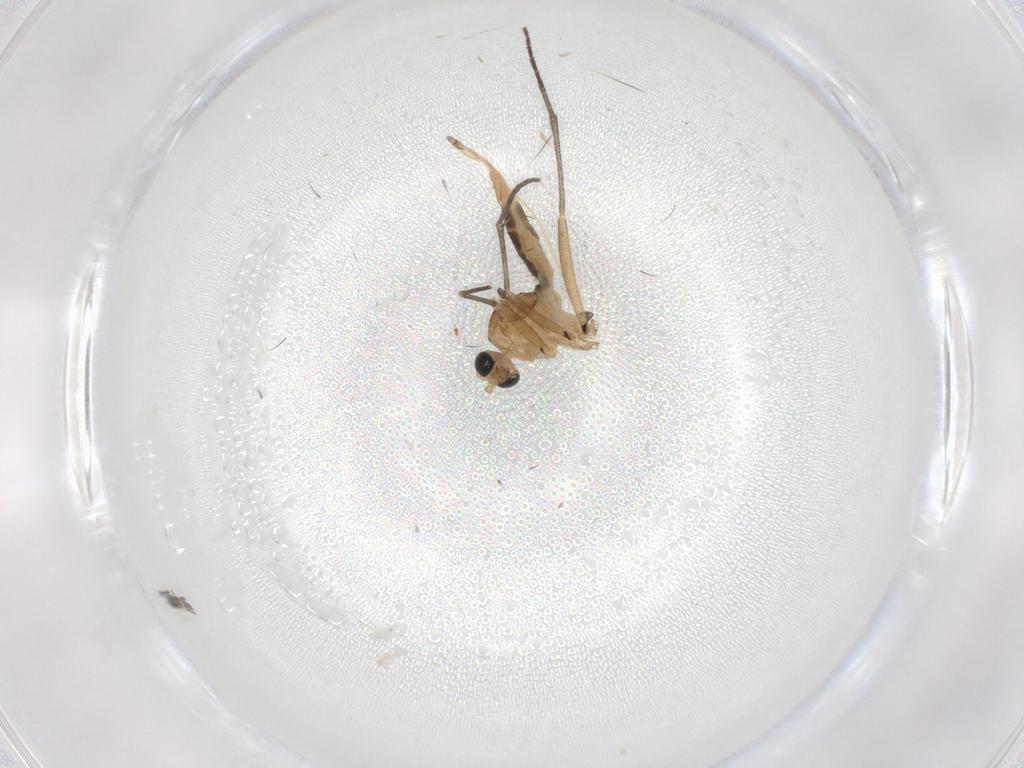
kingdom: Animalia
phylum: Arthropoda
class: Insecta
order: Diptera
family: Sciaridae
